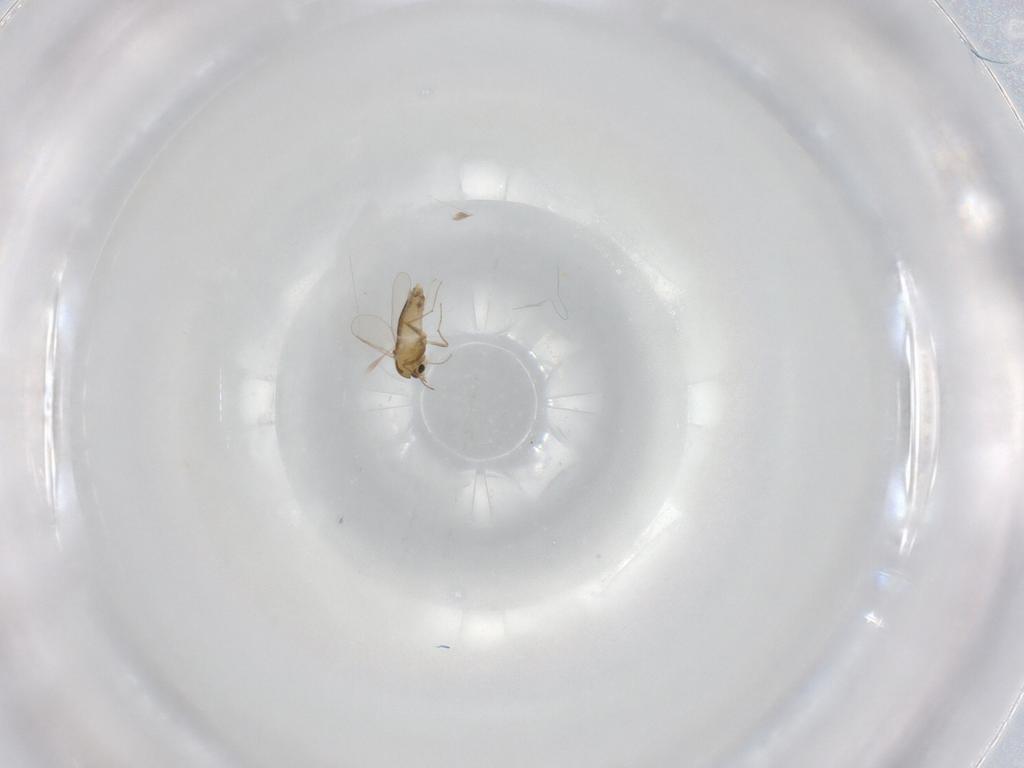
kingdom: Animalia
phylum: Arthropoda
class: Insecta
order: Diptera
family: Chironomidae
